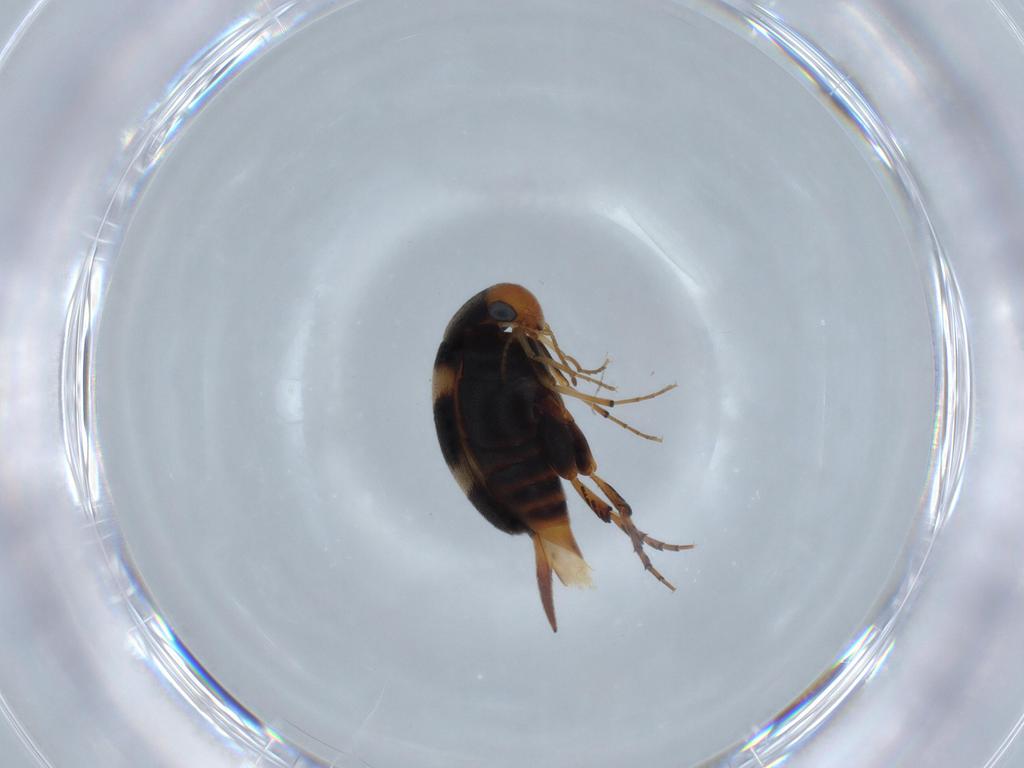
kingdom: Animalia
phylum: Arthropoda
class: Insecta
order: Coleoptera
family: Mordellidae
